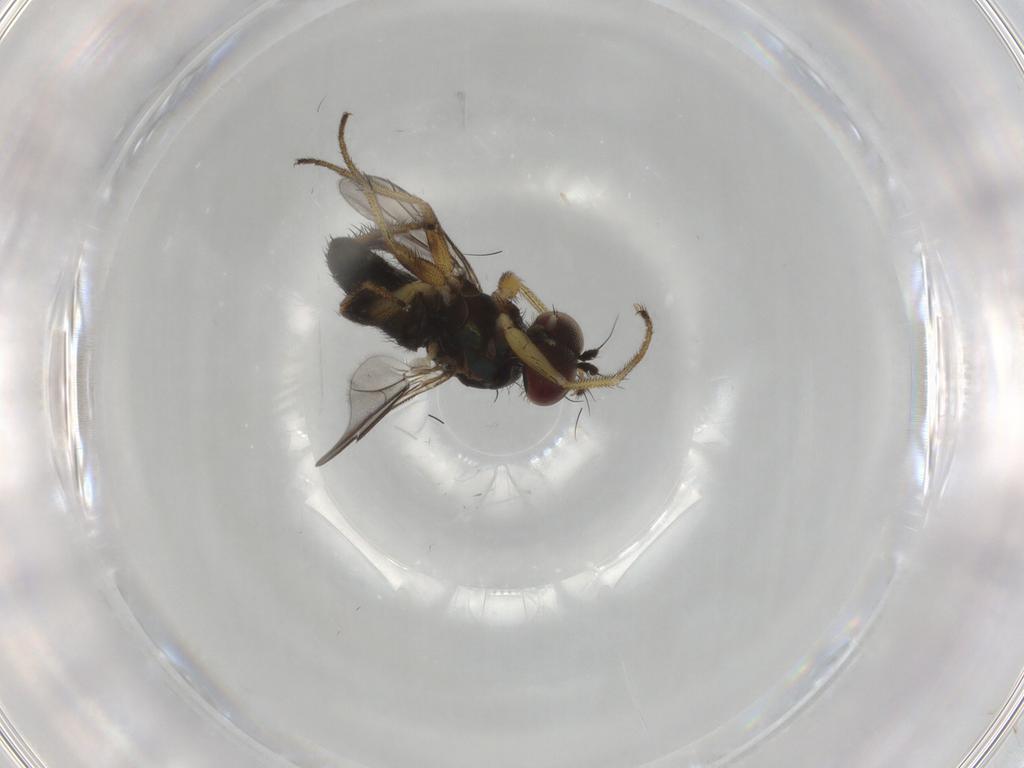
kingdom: Animalia
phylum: Arthropoda
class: Insecta
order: Diptera
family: Dolichopodidae
